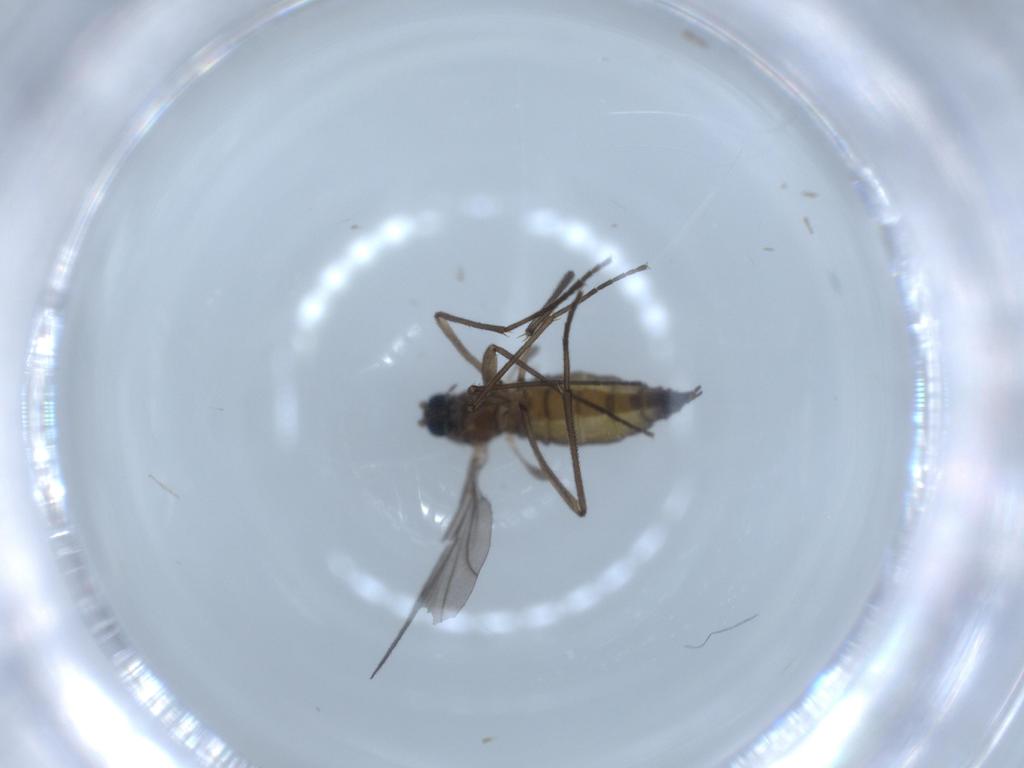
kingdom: Animalia
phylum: Arthropoda
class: Insecta
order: Diptera
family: Sciaridae
